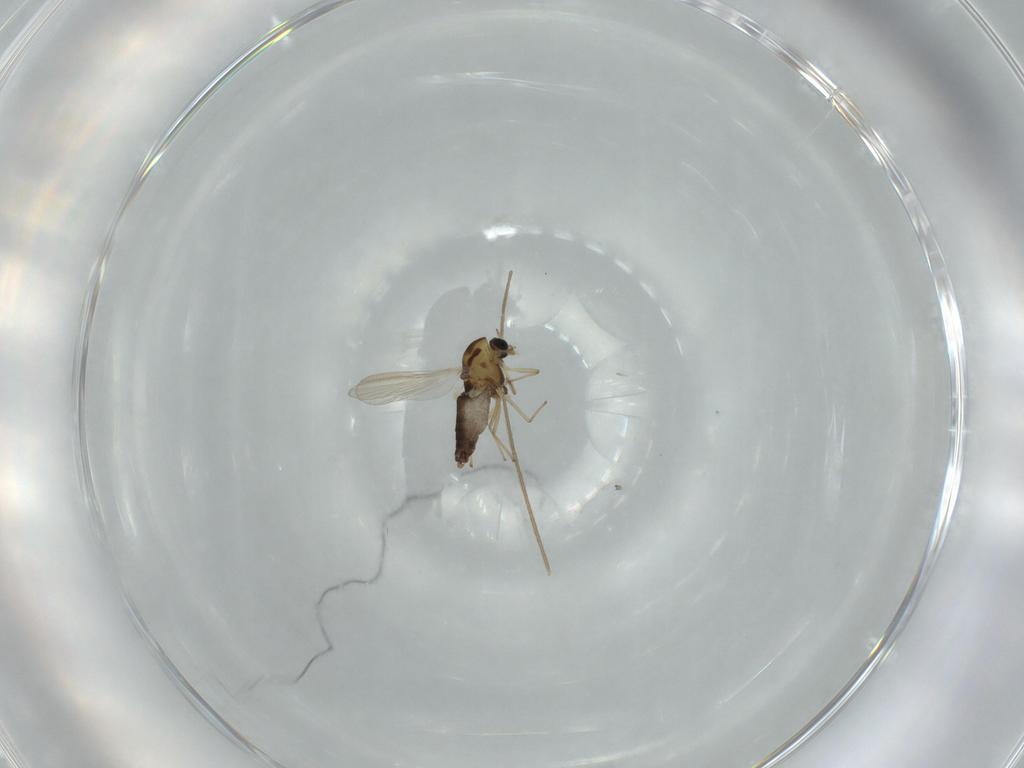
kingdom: Animalia
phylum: Arthropoda
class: Insecta
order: Diptera
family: Chironomidae
